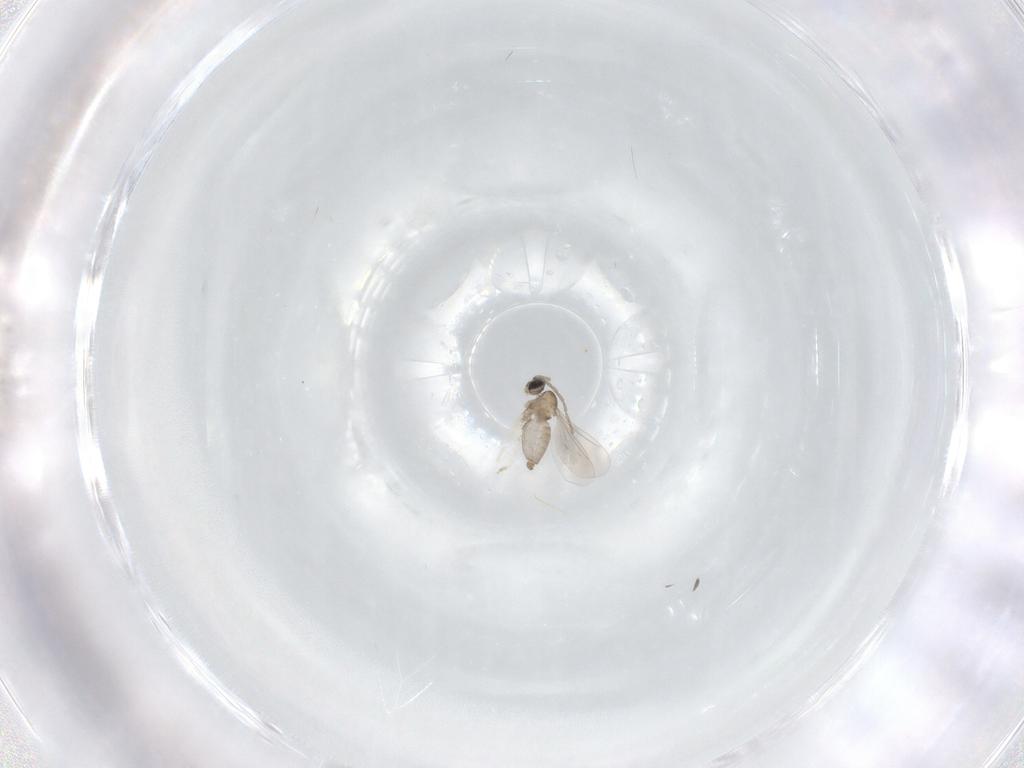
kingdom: Animalia
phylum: Arthropoda
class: Insecta
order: Diptera
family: Cecidomyiidae
